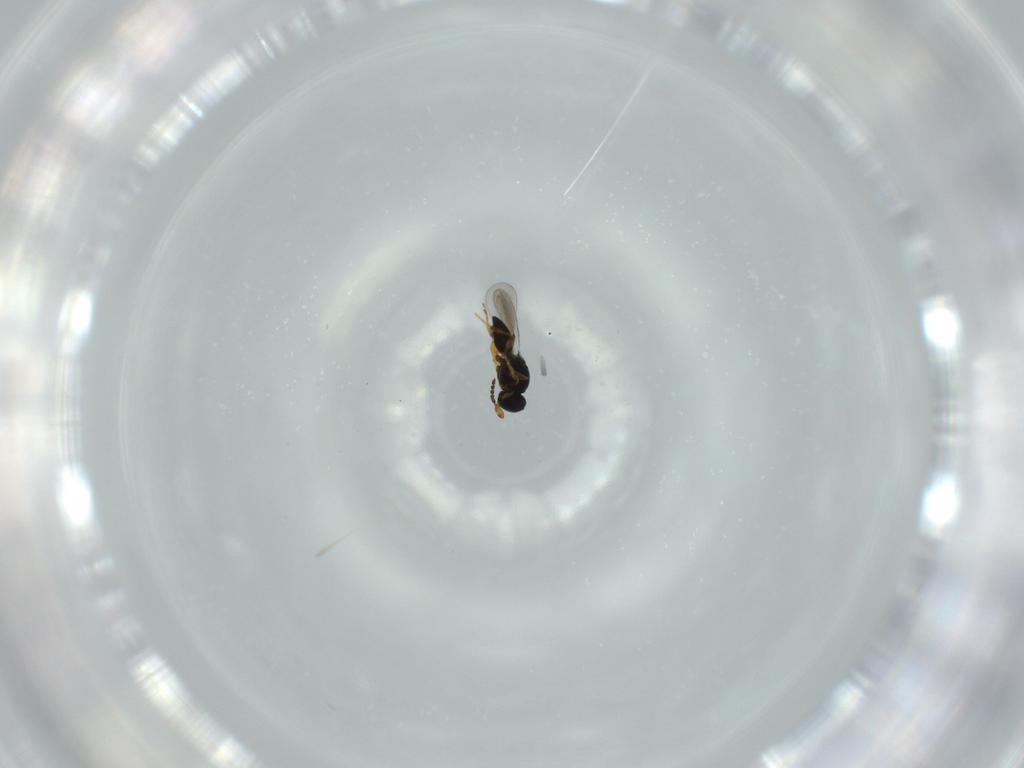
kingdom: Animalia
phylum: Arthropoda
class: Insecta
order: Hymenoptera
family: Platygastridae
